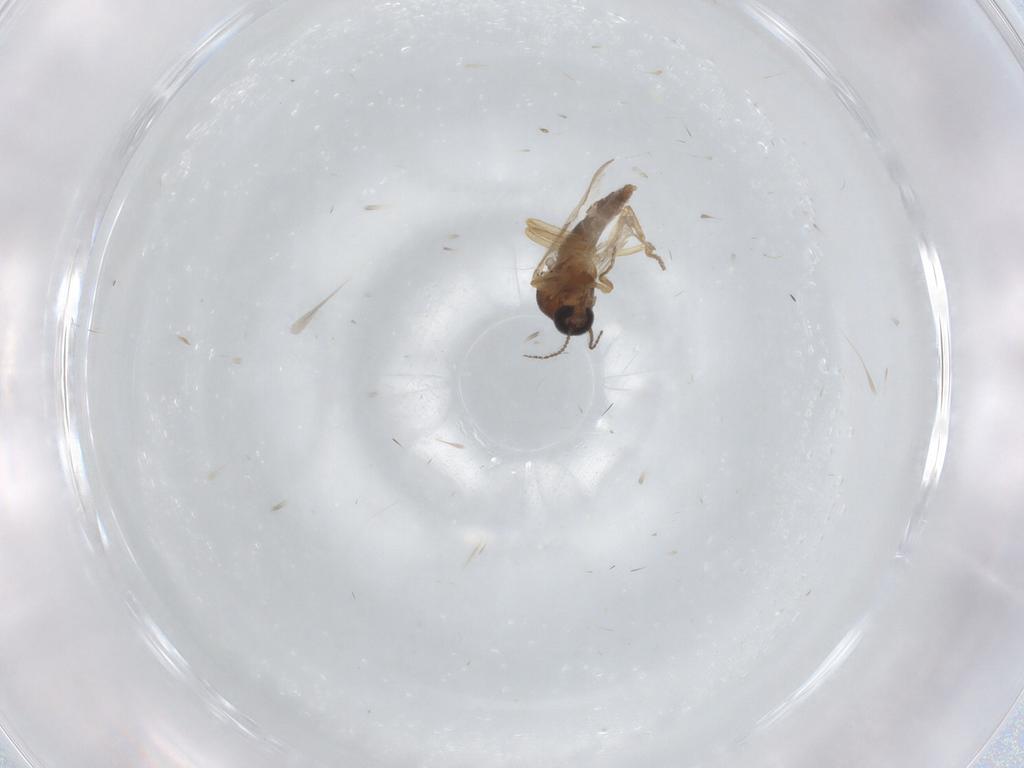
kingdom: Animalia
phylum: Arthropoda
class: Insecta
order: Diptera
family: Ceratopogonidae
